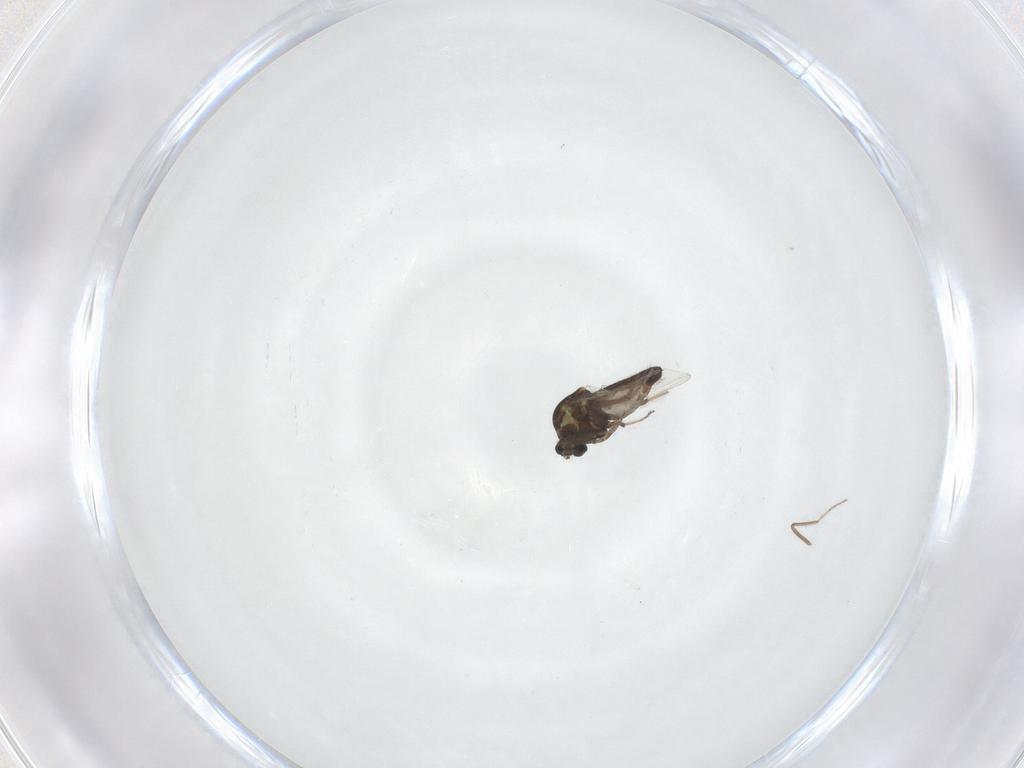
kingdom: Animalia
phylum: Arthropoda
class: Insecta
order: Diptera
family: Ceratopogonidae
